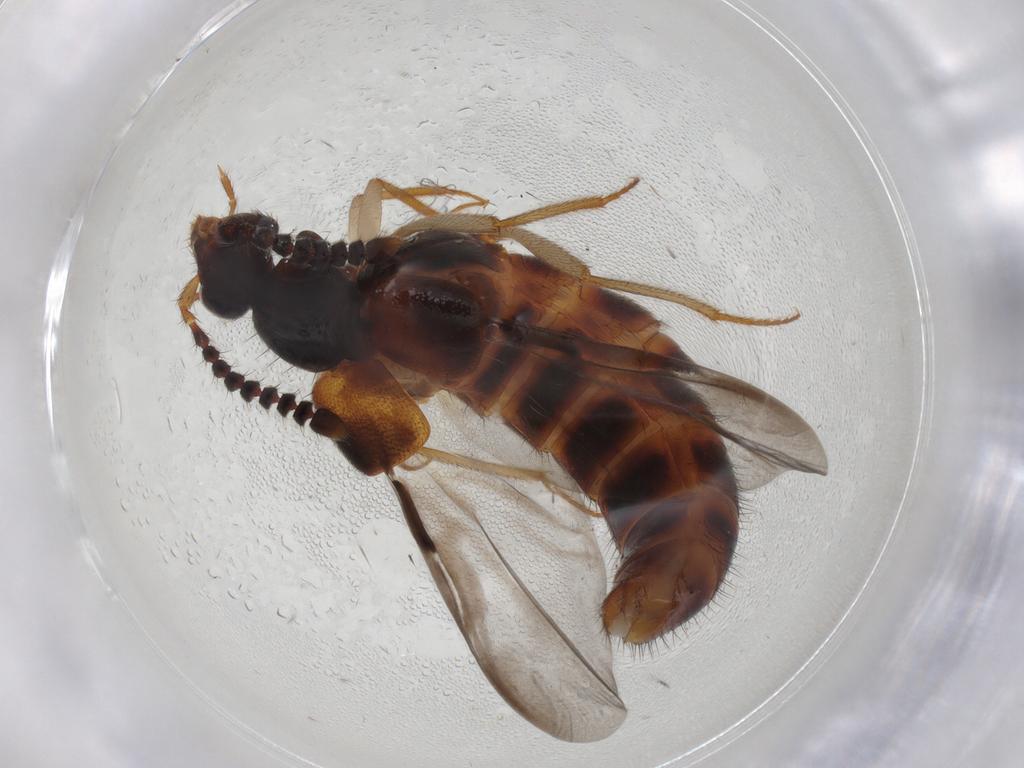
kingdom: Animalia
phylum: Arthropoda
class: Insecta
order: Coleoptera
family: Staphylinidae
